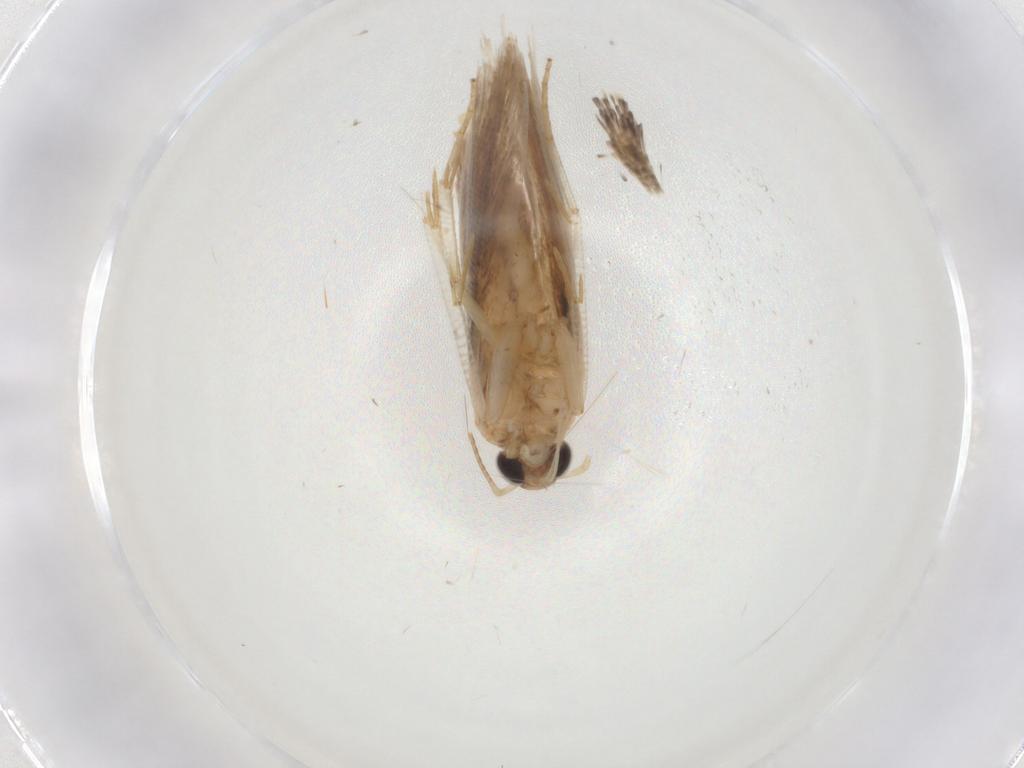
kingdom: Animalia
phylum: Arthropoda
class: Insecta
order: Lepidoptera
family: Gelechiidae
